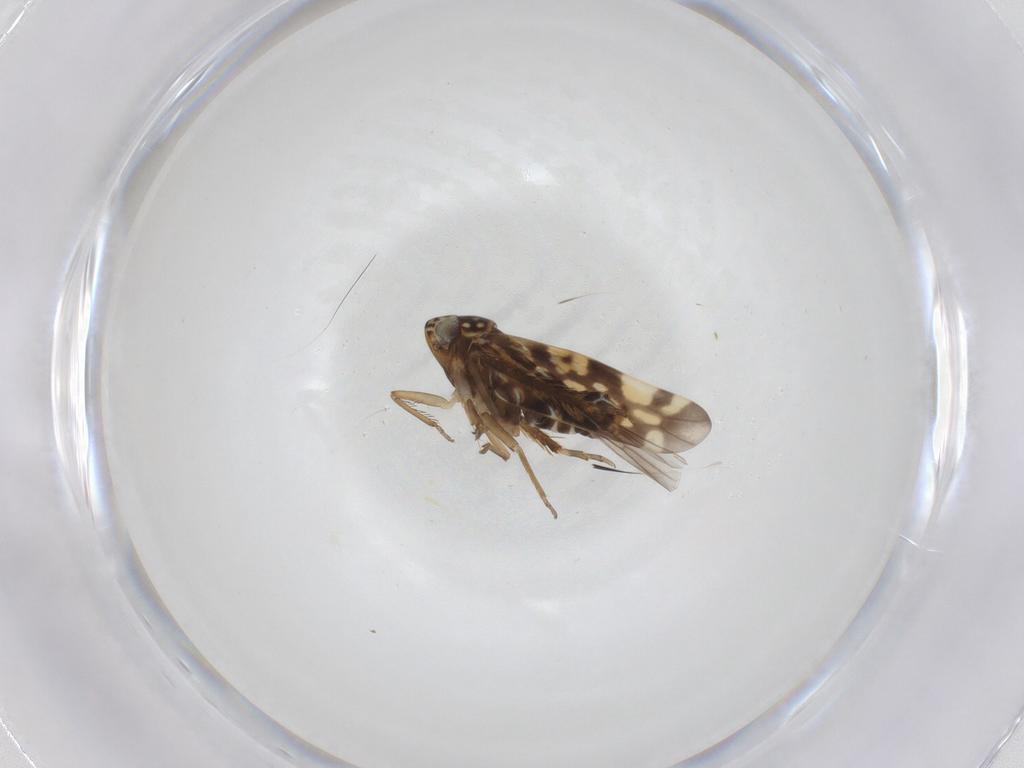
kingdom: Animalia
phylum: Arthropoda
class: Insecta
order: Hemiptera
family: Cicadellidae
